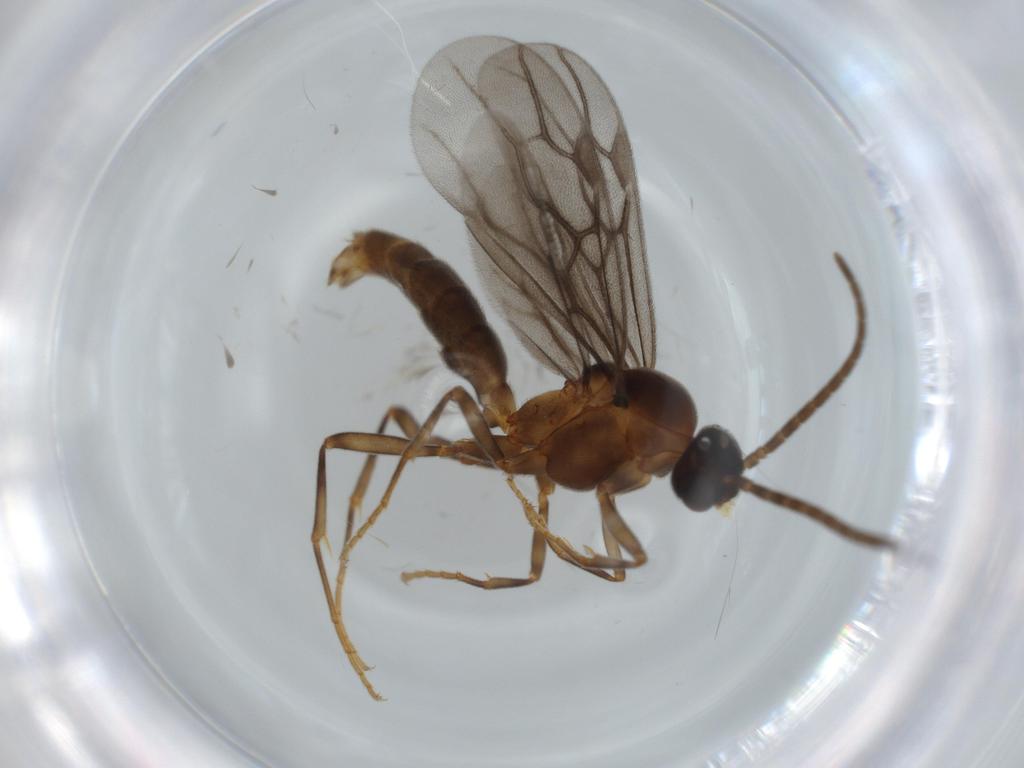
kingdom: Animalia
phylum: Arthropoda
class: Insecta
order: Hymenoptera
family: Formicidae
